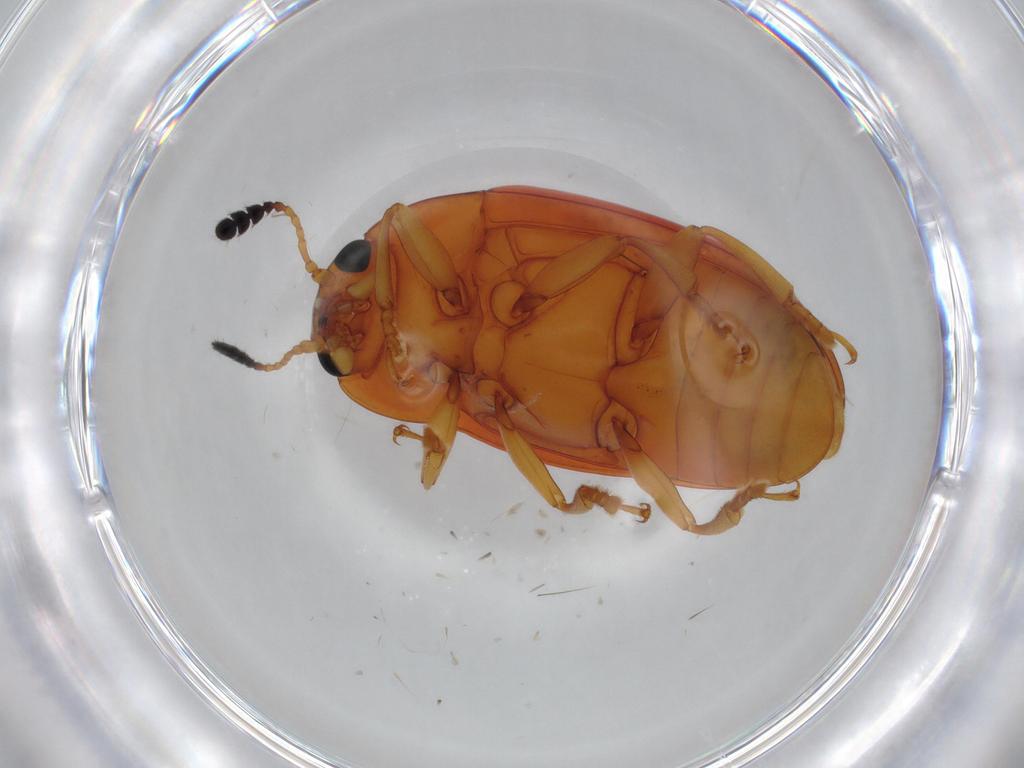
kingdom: Animalia
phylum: Arthropoda
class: Insecta
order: Coleoptera
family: Erotylidae
